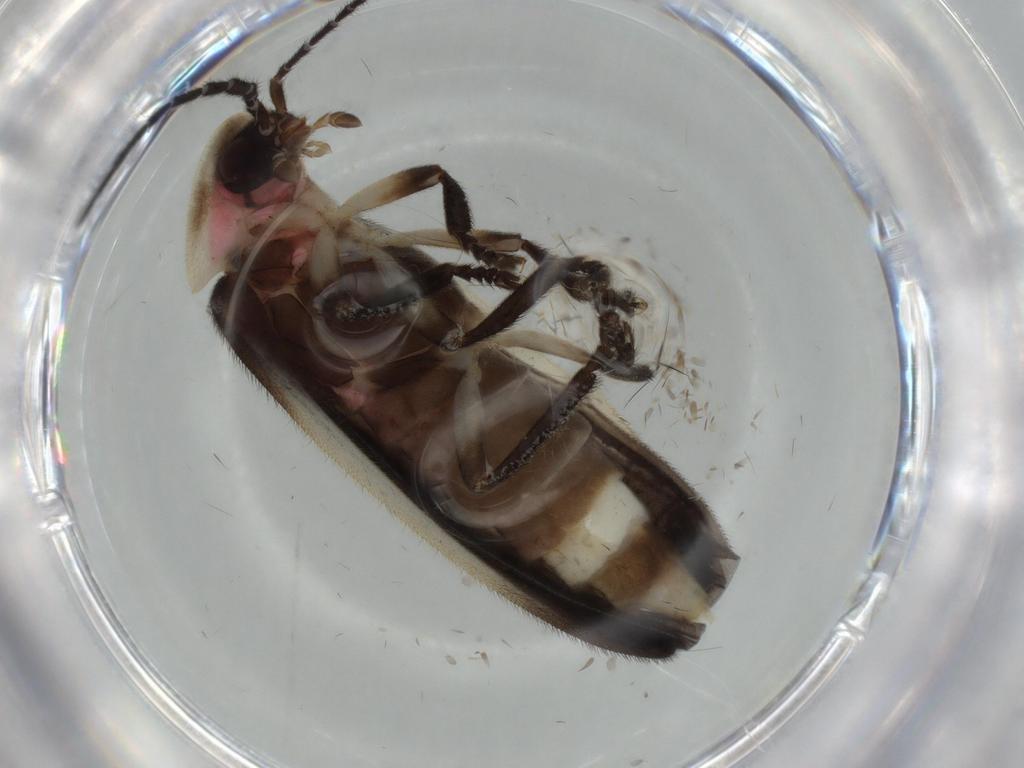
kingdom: Animalia
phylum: Arthropoda
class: Insecta
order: Coleoptera
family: Lampyridae
